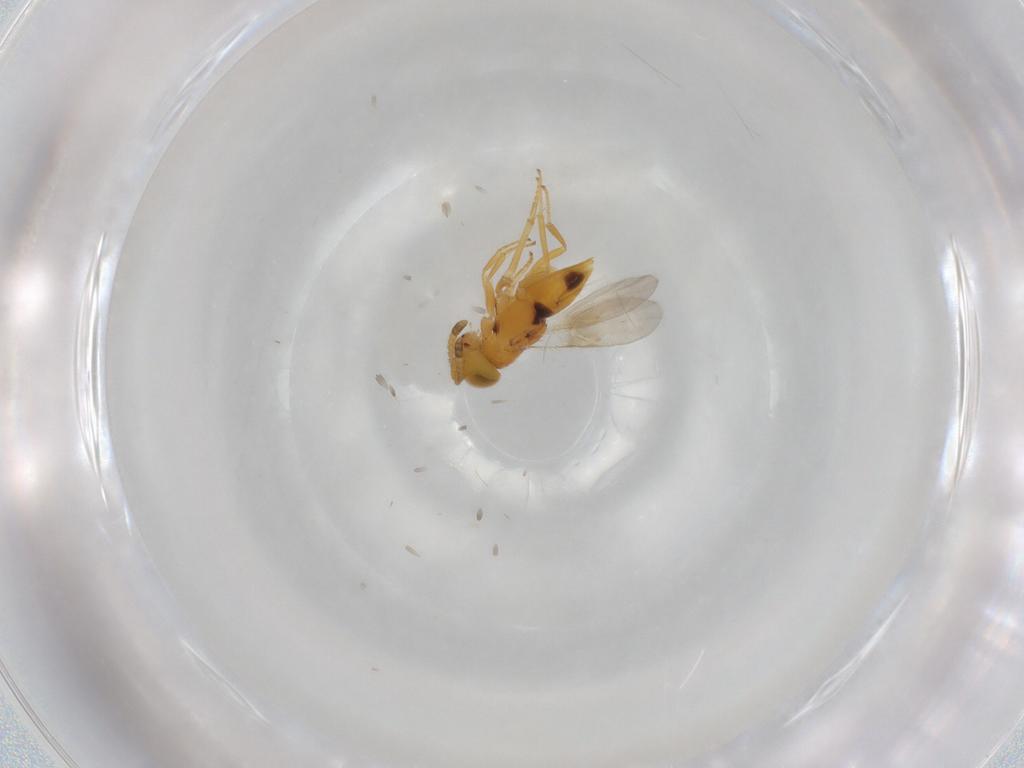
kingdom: Animalia
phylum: Arthropoda
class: Insecta
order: Hymenoptera
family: Encyrtidae
